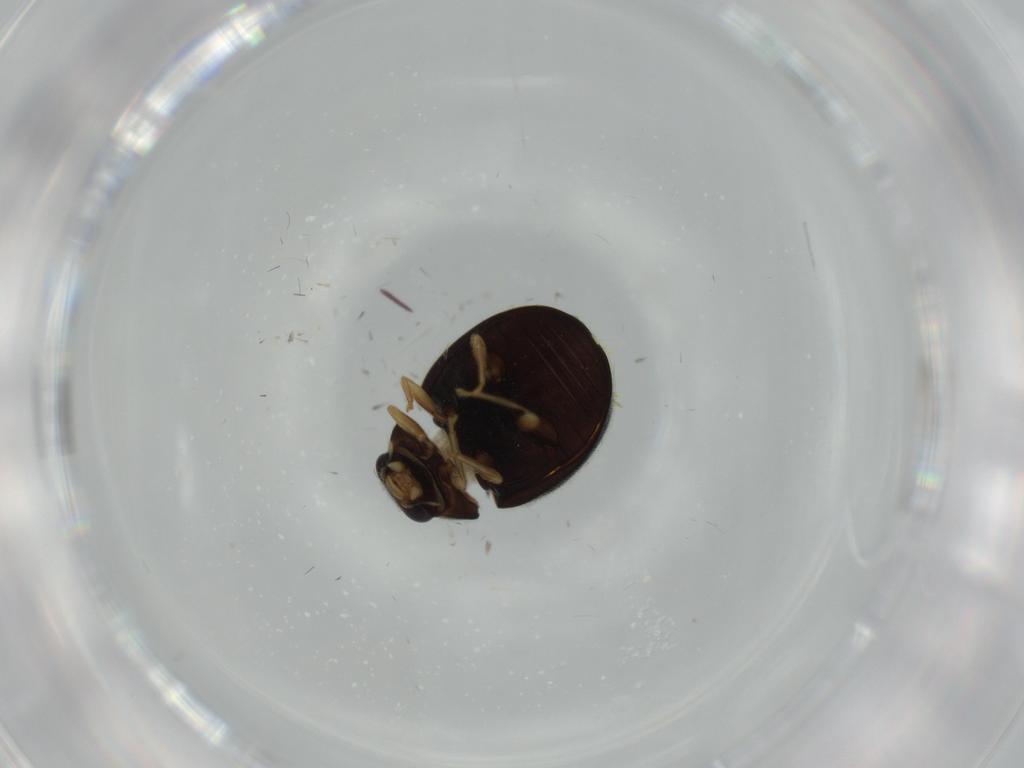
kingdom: Animalia
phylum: Arthropoda
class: Insecta
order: Coleoptera
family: Coccinellidae
